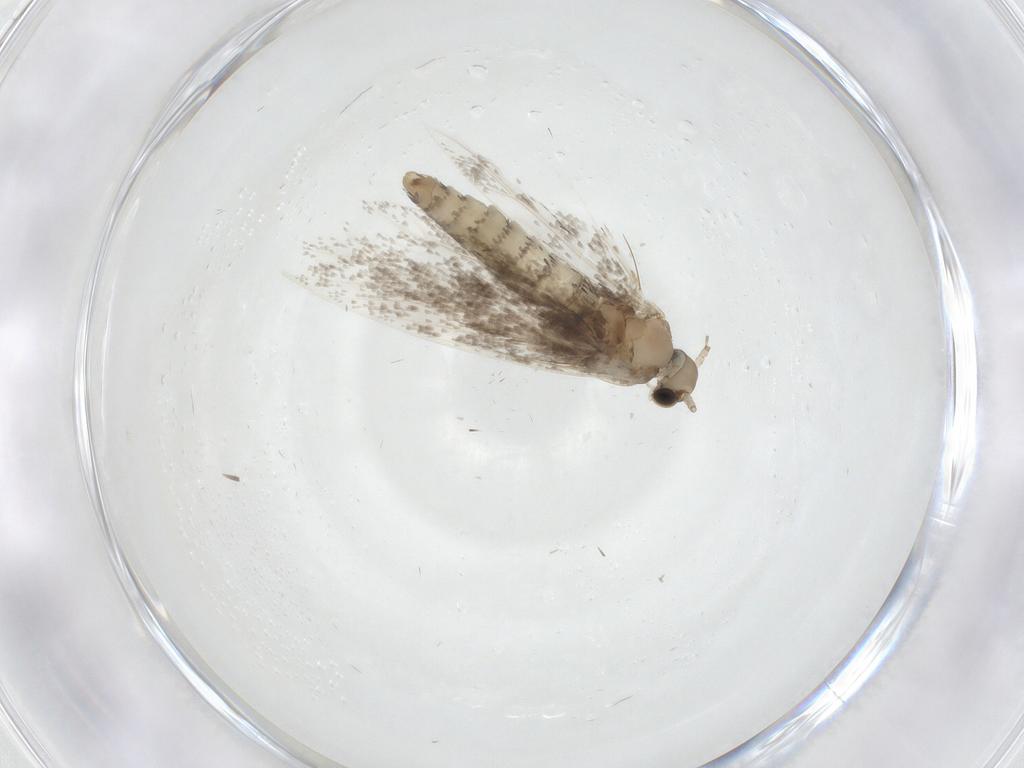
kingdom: Animalia
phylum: Arthropoda
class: Insecta
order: Lepidoptera
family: Nymphalidae
